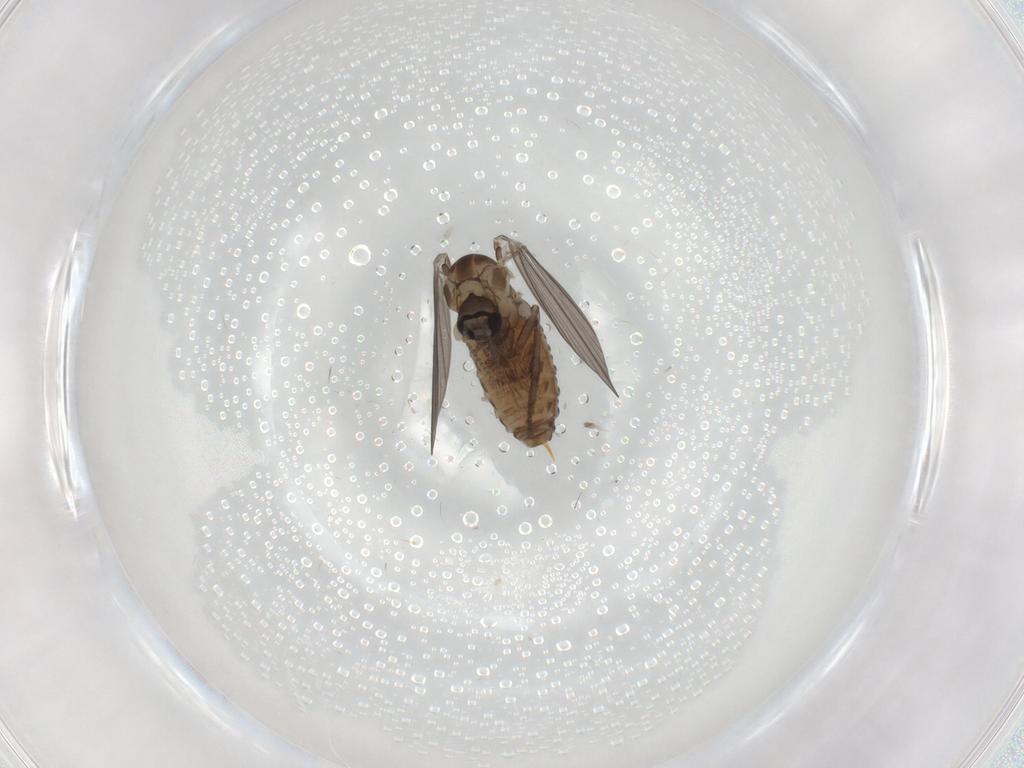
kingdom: Animalia
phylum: Arthropoda
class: Insecta
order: Diptera
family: Psychodidae
